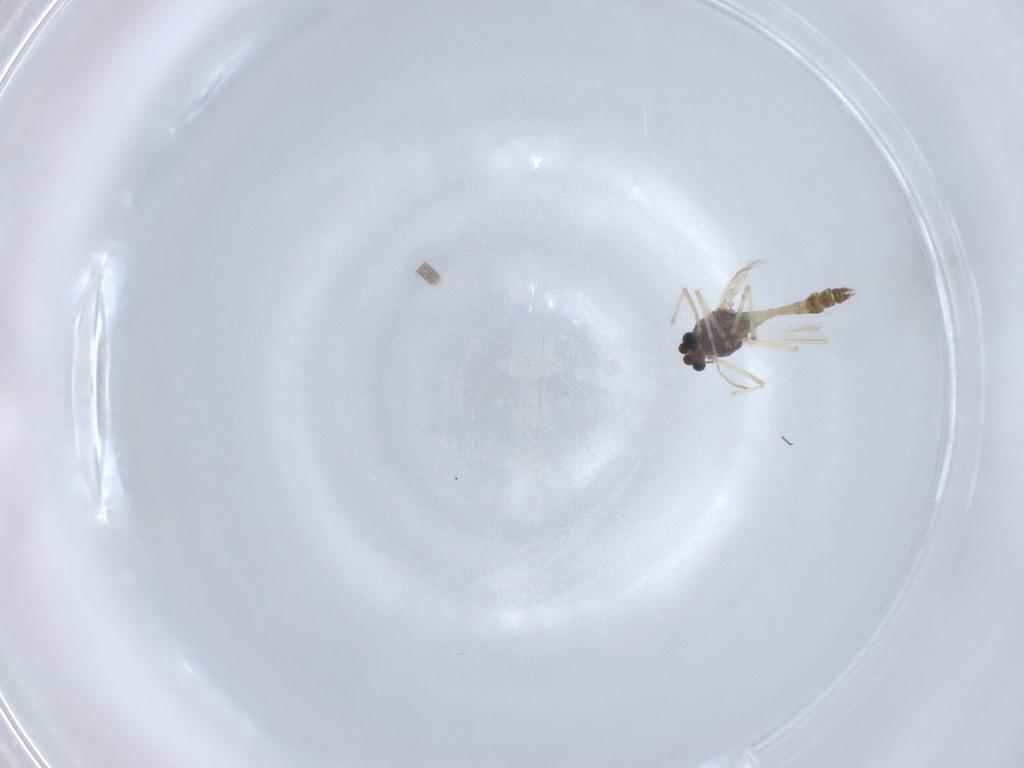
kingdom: Animalia
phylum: Arthropoda
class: Insecta
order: Diptera
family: Chironomidae
